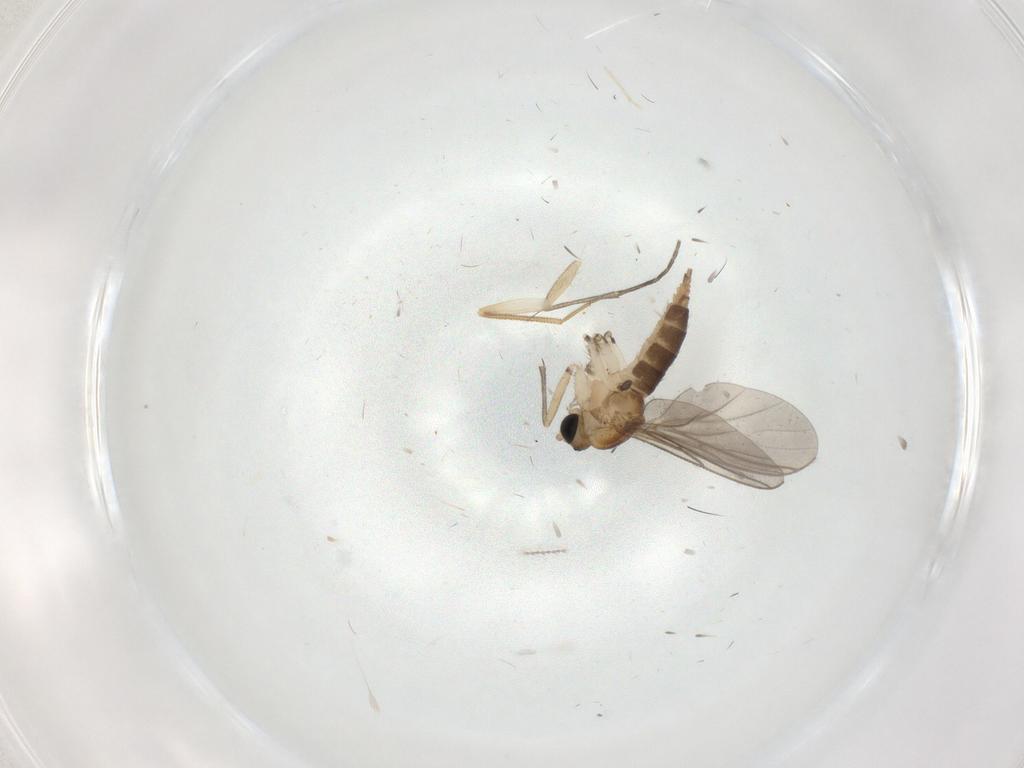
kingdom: Animalia
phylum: Arthropoda
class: Insecta
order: Diptera
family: Sciaridae
